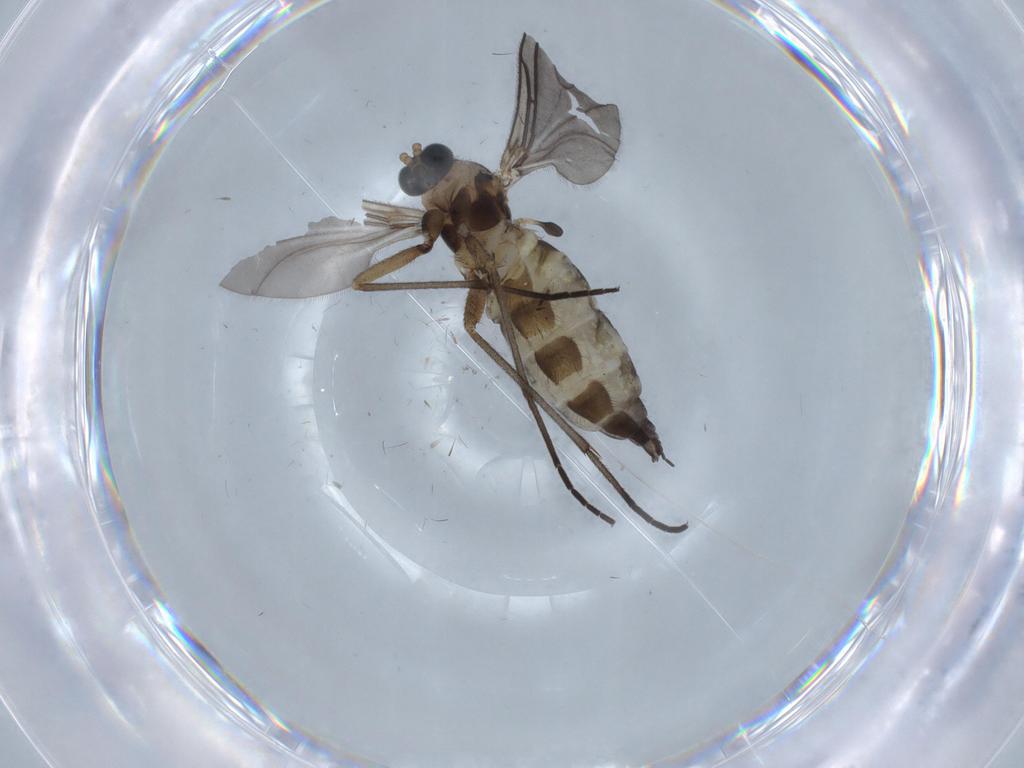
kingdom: Animalia
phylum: Arthropoda
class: Insecta
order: Diptera
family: Sciaridae
